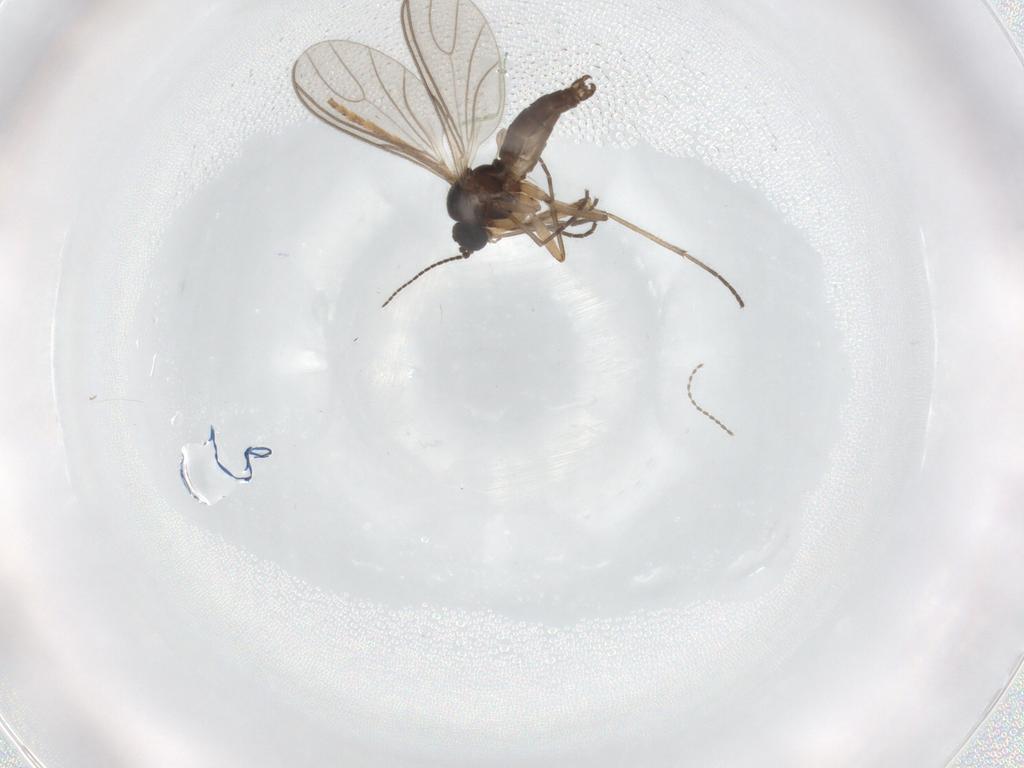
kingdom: Animalia
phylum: Arthropoda
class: Insecta
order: Diptera
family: Sciaridae
